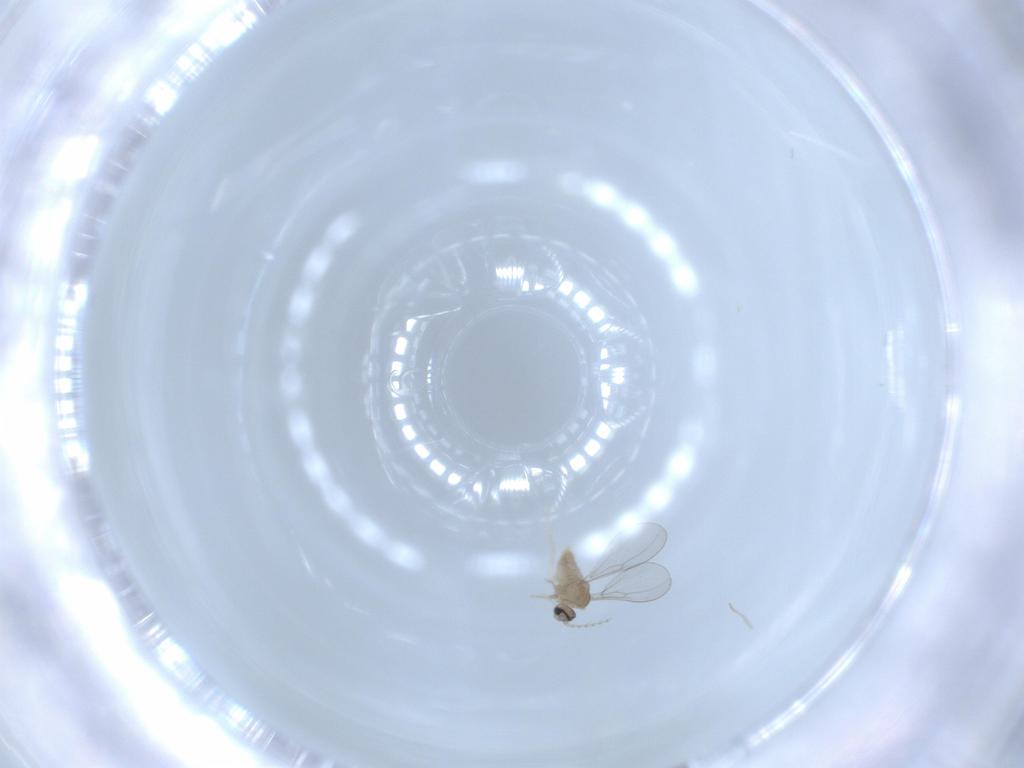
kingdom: Animalia
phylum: Arthropoda
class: Insecta
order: Diptera
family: Cecidomyiidae
